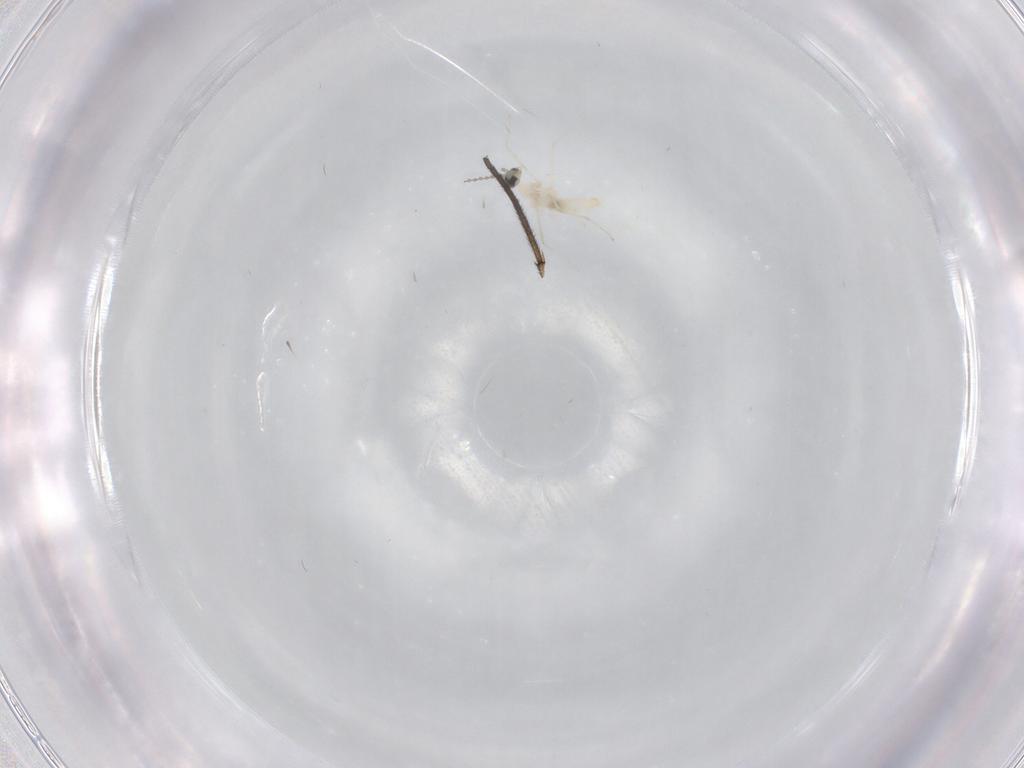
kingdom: Animalia
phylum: Arthropoda
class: Insecta
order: Diptera
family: Cecidomyiidae
